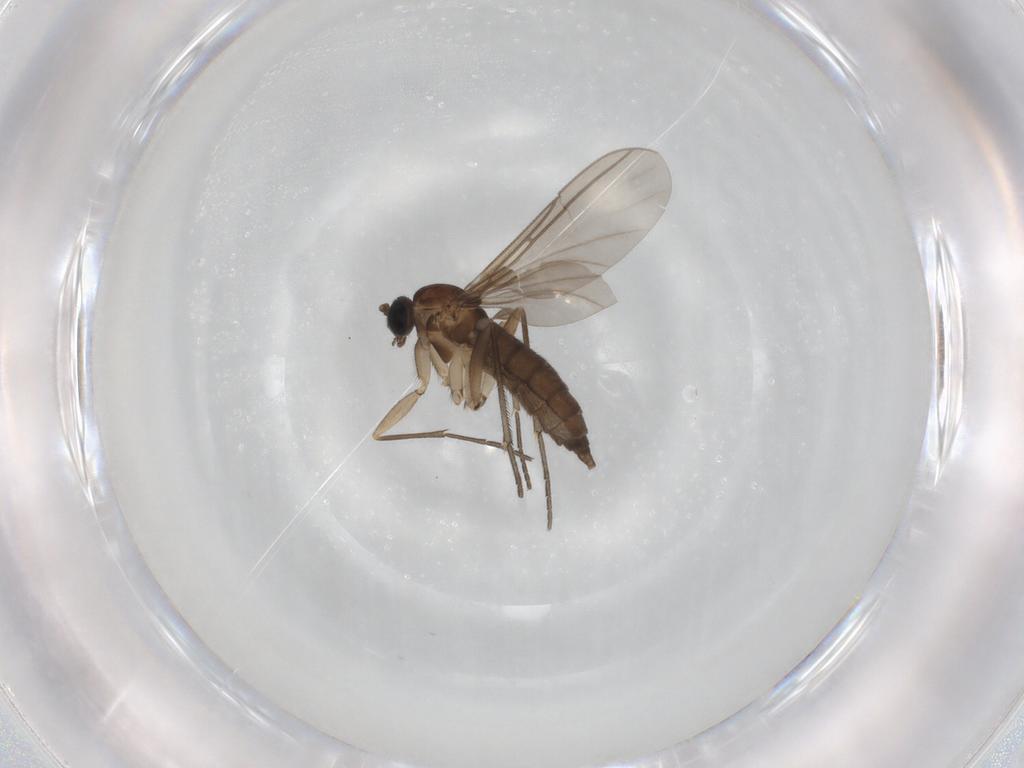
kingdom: Animalia
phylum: Arthropoda
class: Insecta
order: Diptera
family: Sciaridae
